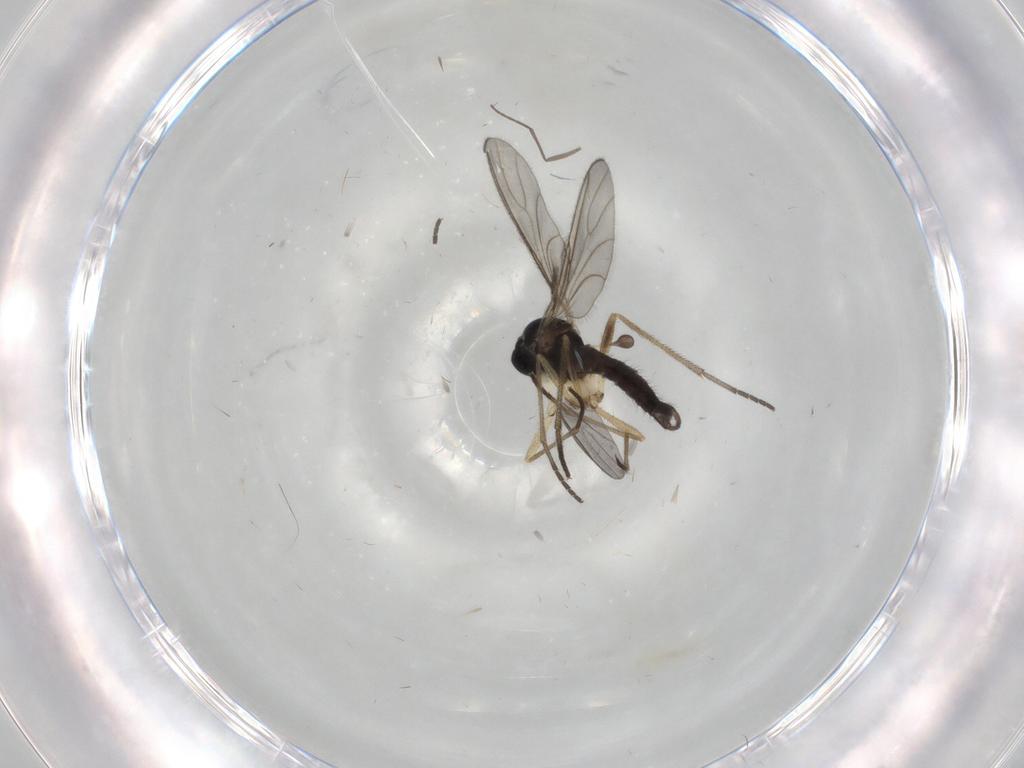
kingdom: Animalia
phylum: Arthropoda
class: Insecta
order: Diptera
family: Sciaridae
